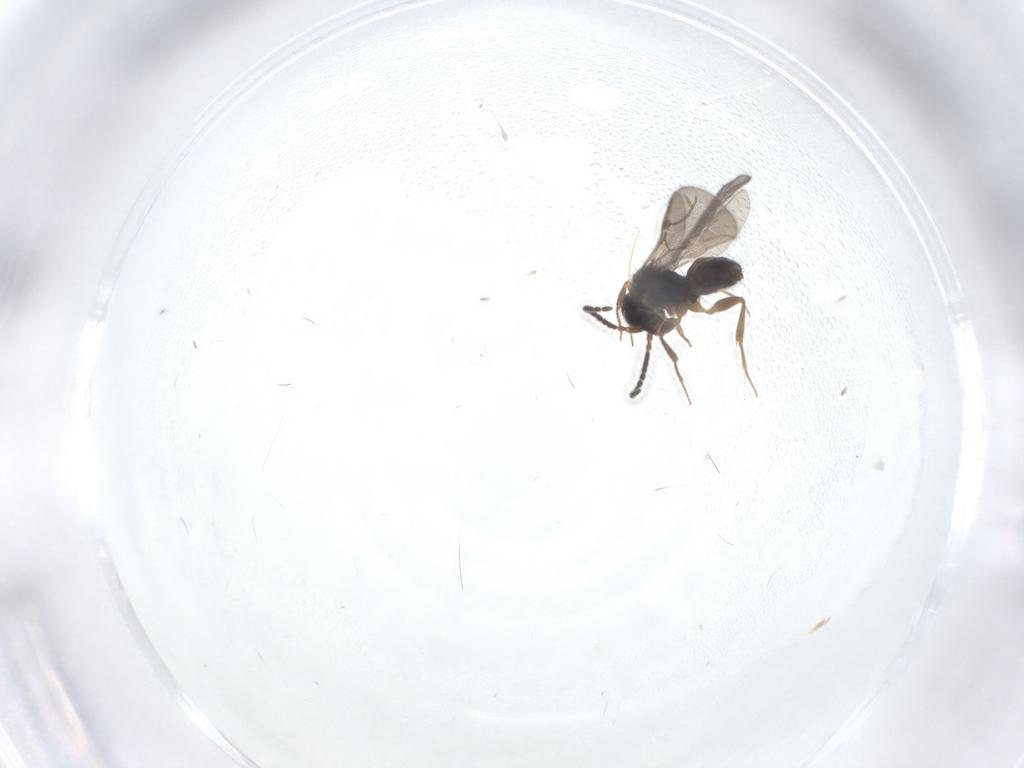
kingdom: Animalia
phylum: Arthropoda
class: Insecta
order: Hymenoptera
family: Bethylidae
